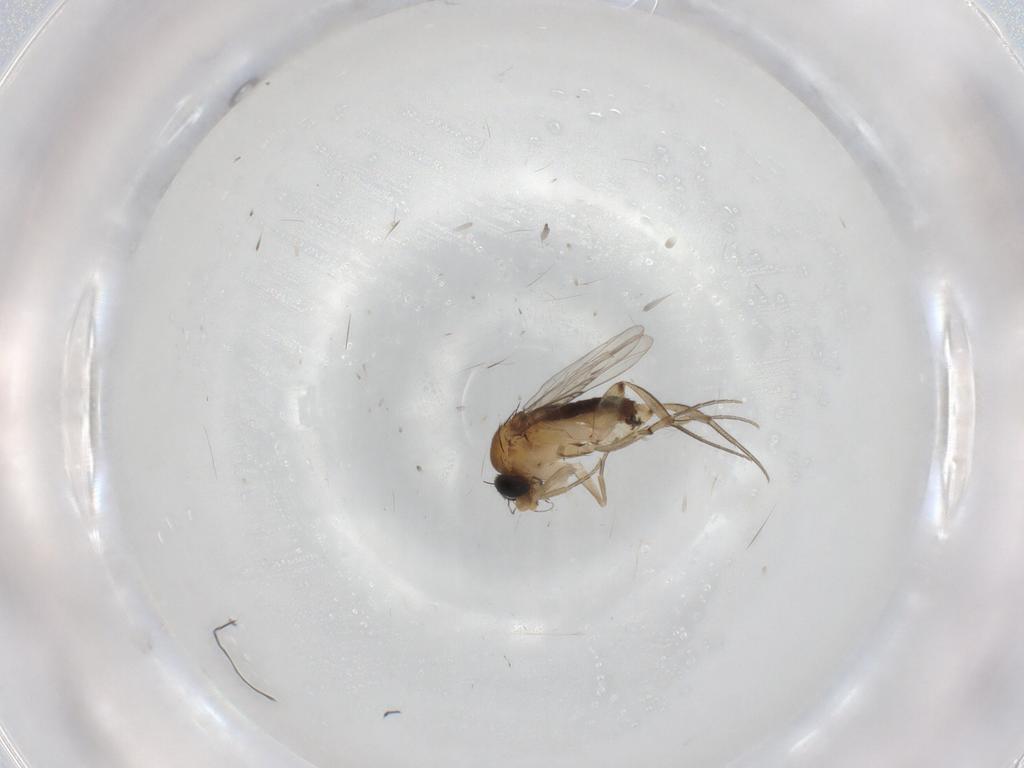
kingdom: Animalia
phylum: Arthropoda
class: Insecta
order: Diptera
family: Phoridae
